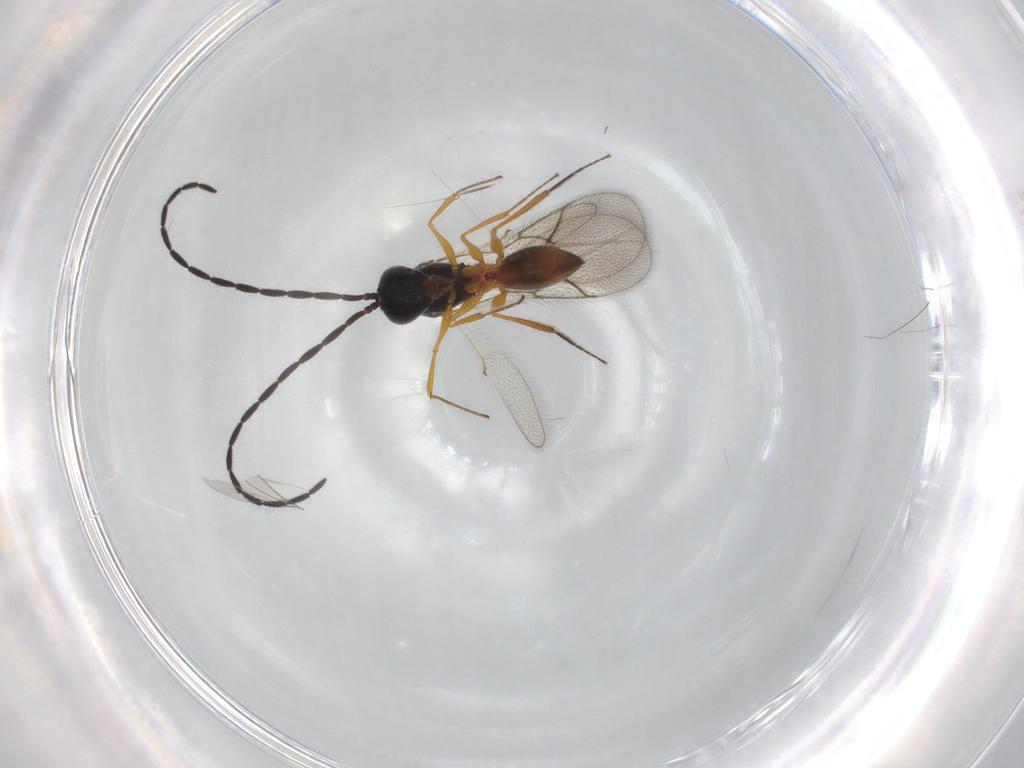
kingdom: Animalia
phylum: Arthropoda
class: Insecta
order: Hymenoptera
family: Figitidae
